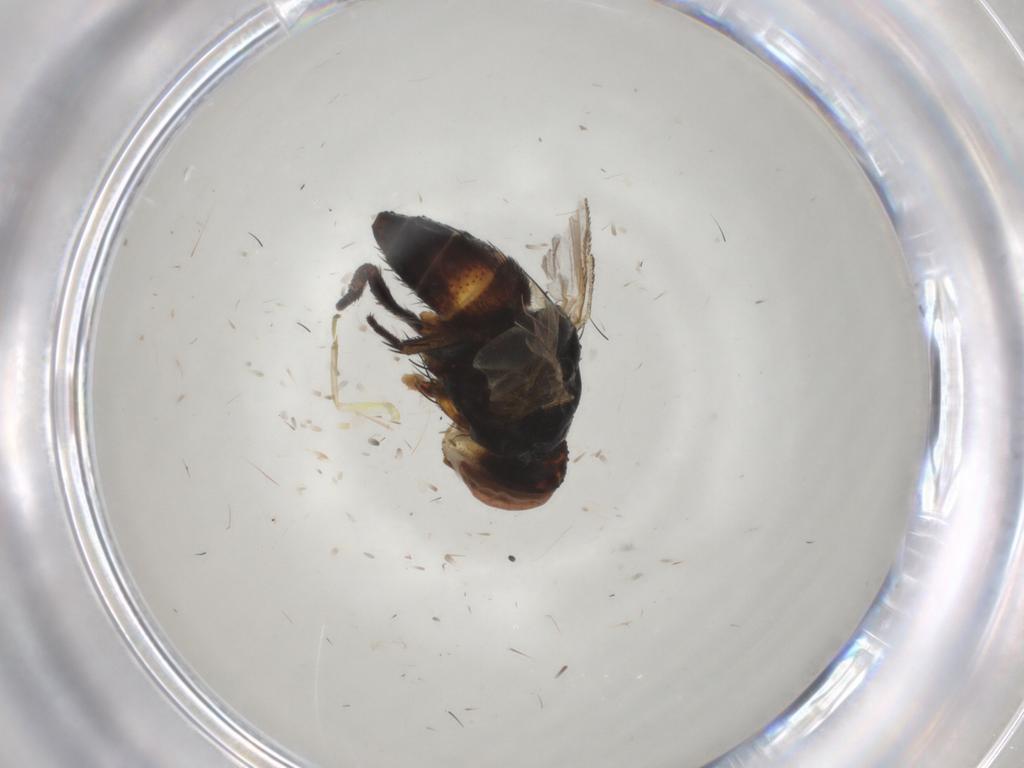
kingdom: Animalia
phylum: Arthropoda
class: Insecta
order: Diptera
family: Glossinidae
